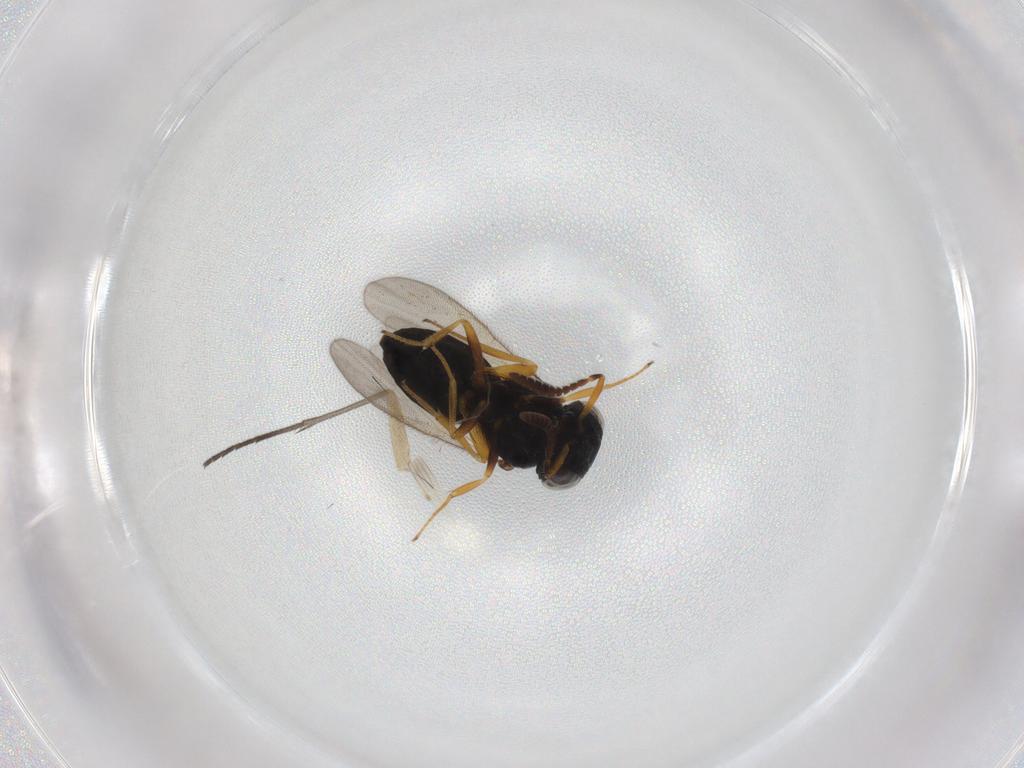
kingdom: Animalia
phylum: Arthropoda
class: Insecta
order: Hymenoptera
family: Scelionidae
